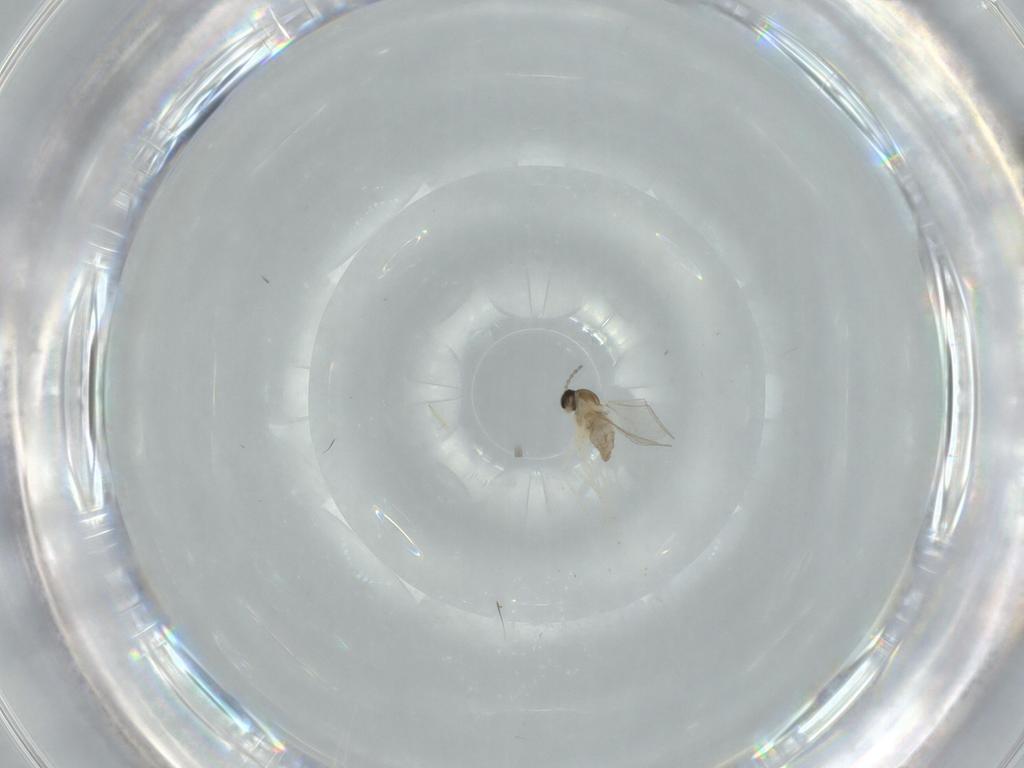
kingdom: Animalia
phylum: Arthropoda
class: Insecta
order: Diptera
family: Cecidomyiidae
